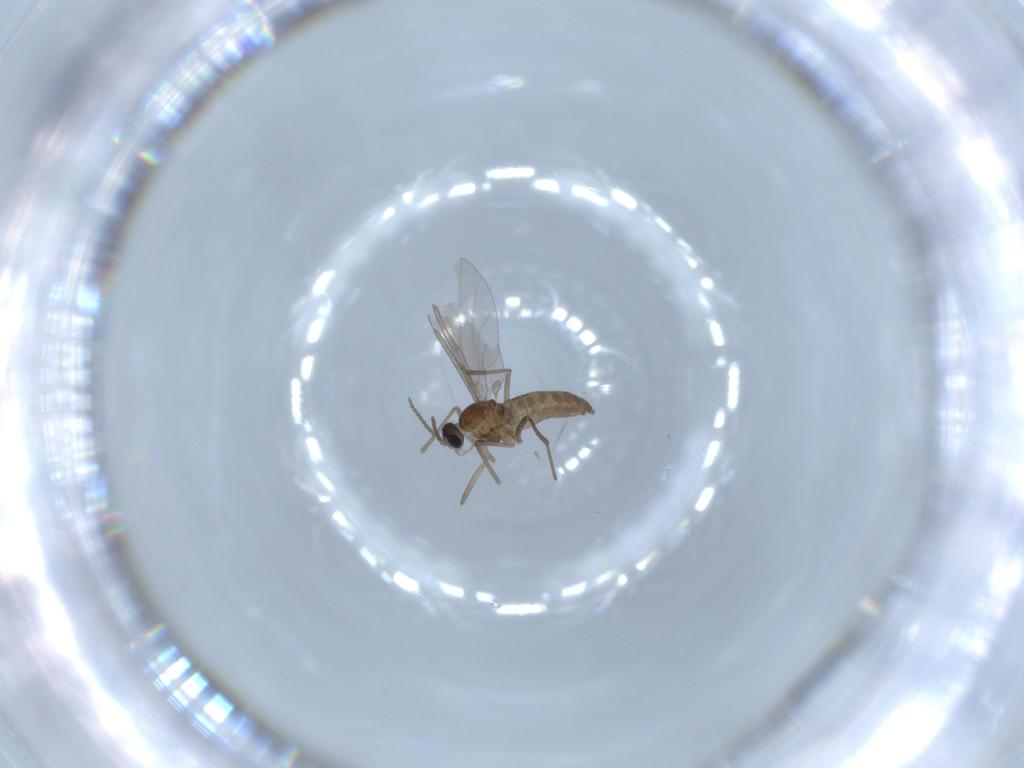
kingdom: Animalia
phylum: Arthropoda
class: Insecta
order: Diptera
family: Cecidomyiidae
